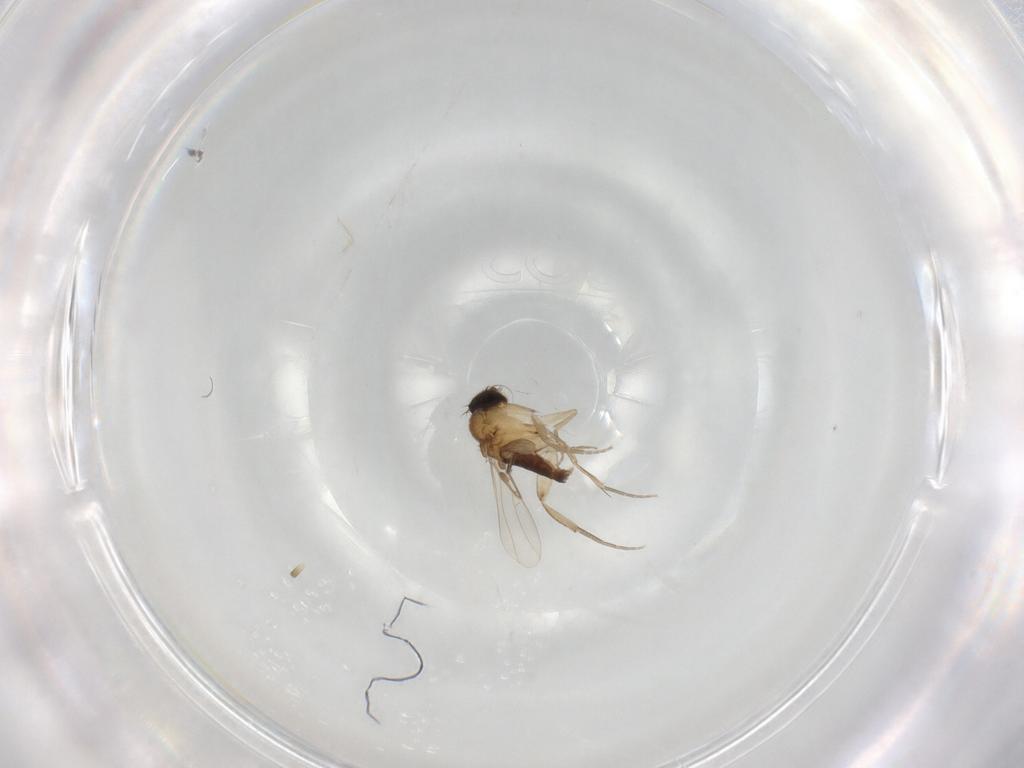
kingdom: Animalia
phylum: Arthropoda
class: Insecta
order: Diptera
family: Phoridae
